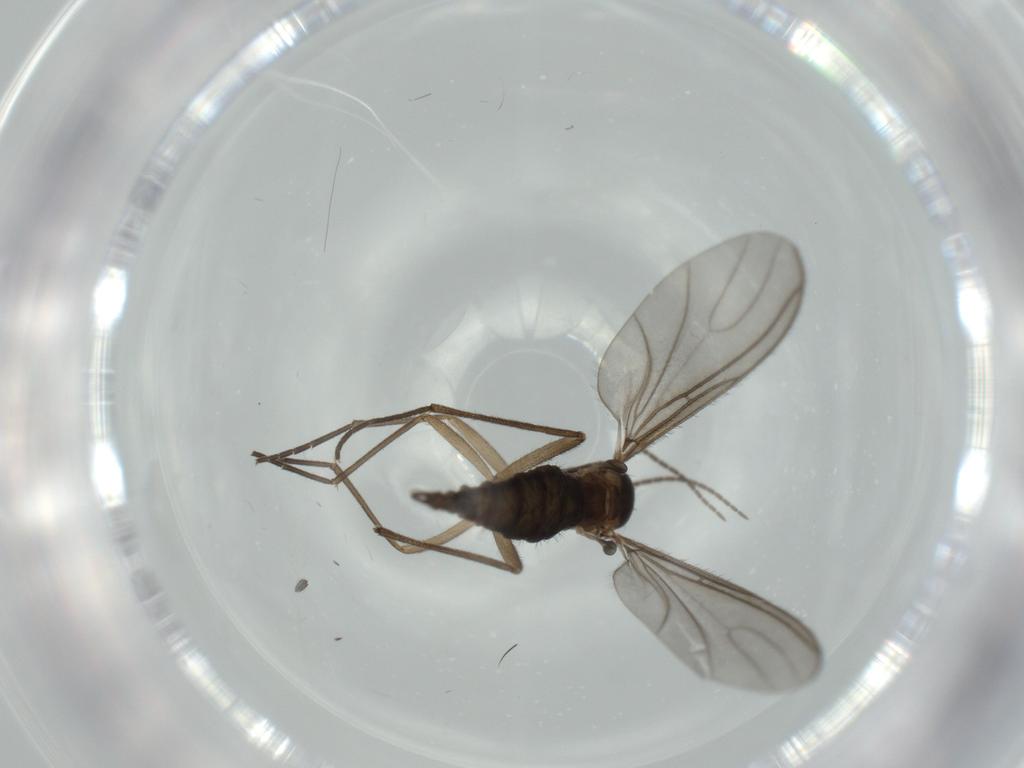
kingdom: Animalia
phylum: Arthropoda
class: Insecta
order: Diptera
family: Sciaridae
